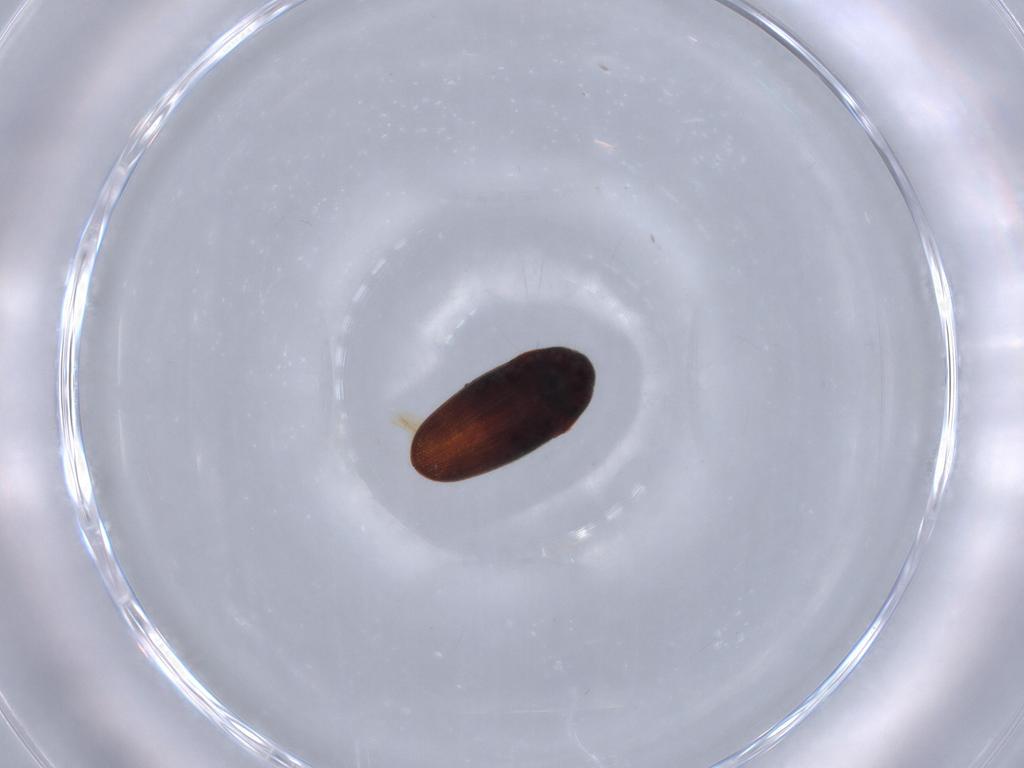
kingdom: Animalia
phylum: Arthropoda
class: Insecta
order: Coleoptera
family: Throscidae
